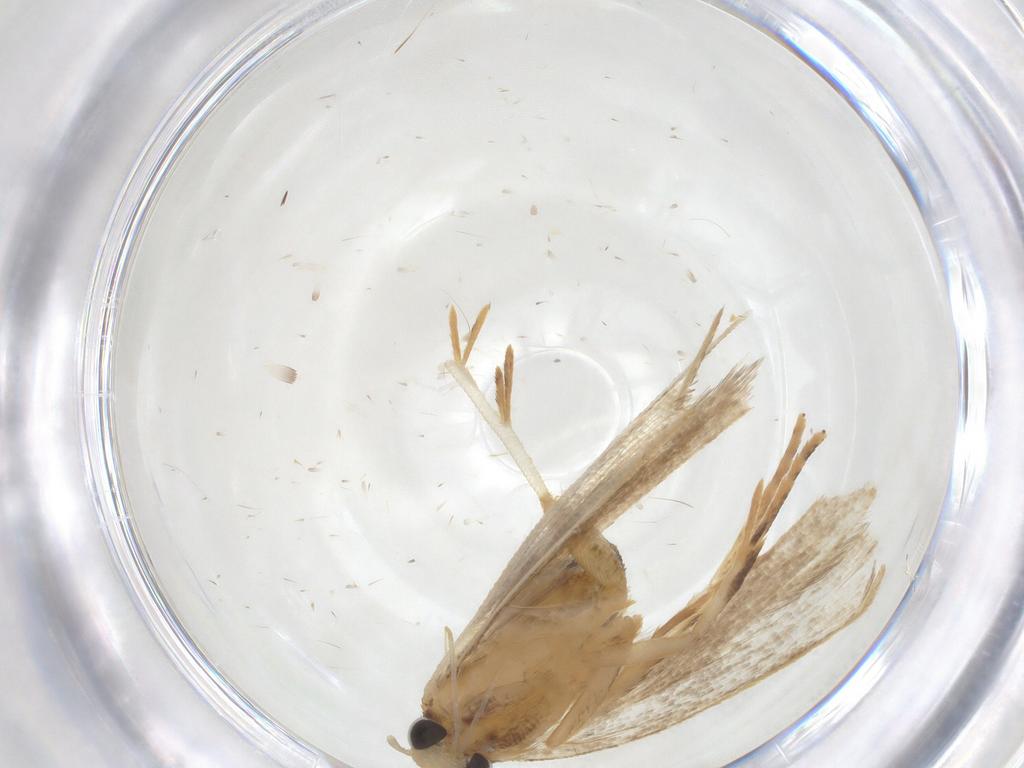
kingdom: Animalia
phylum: Arthropoda
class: Insecta
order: Lepidoptera
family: Gelechiidae
